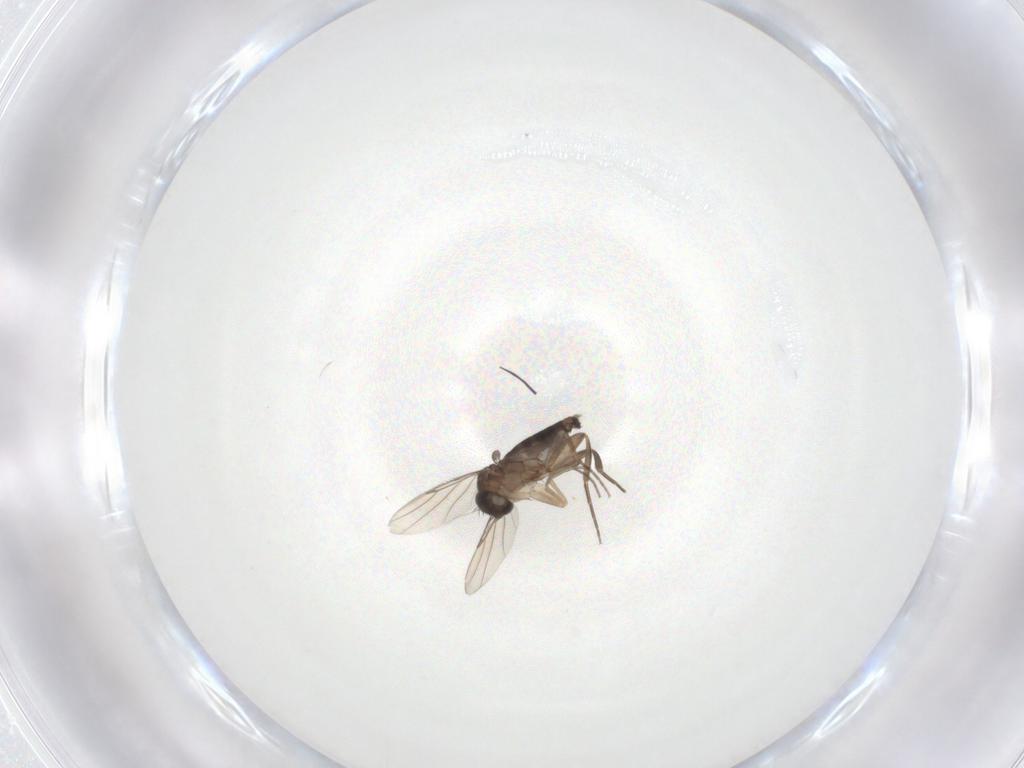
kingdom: Animalia
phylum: Arthropoda
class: Insecta
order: Diptera
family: Phoridae
